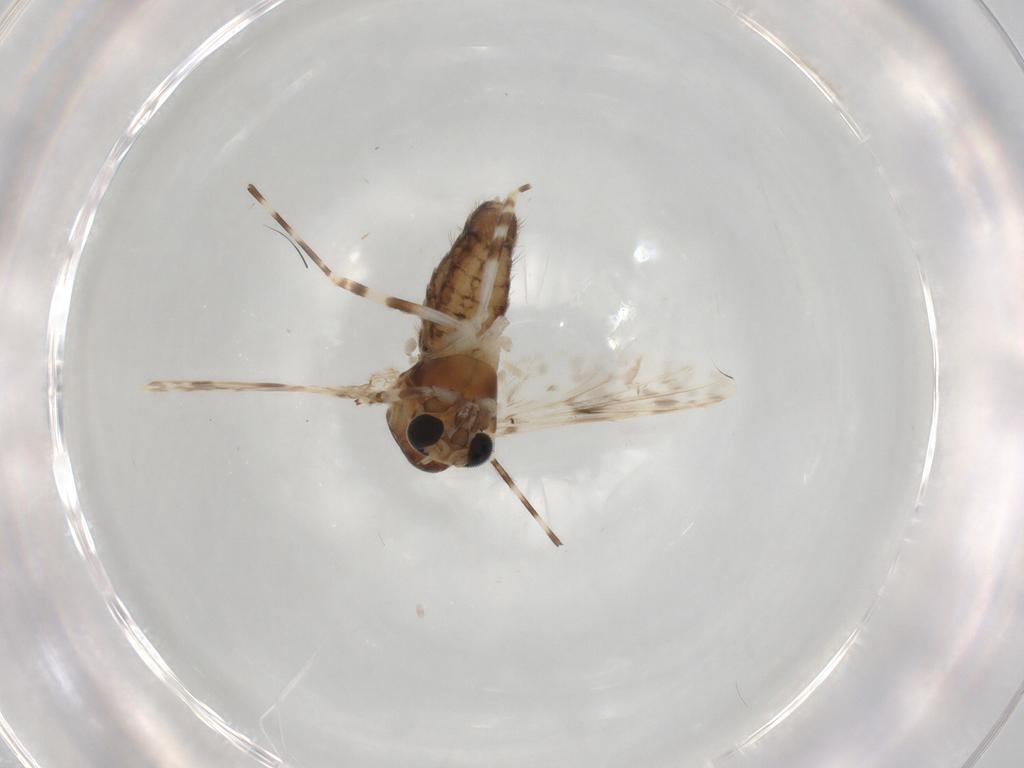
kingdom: Animalia
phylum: Arthropoda
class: Insecta
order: Diptera
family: Chironomidae
